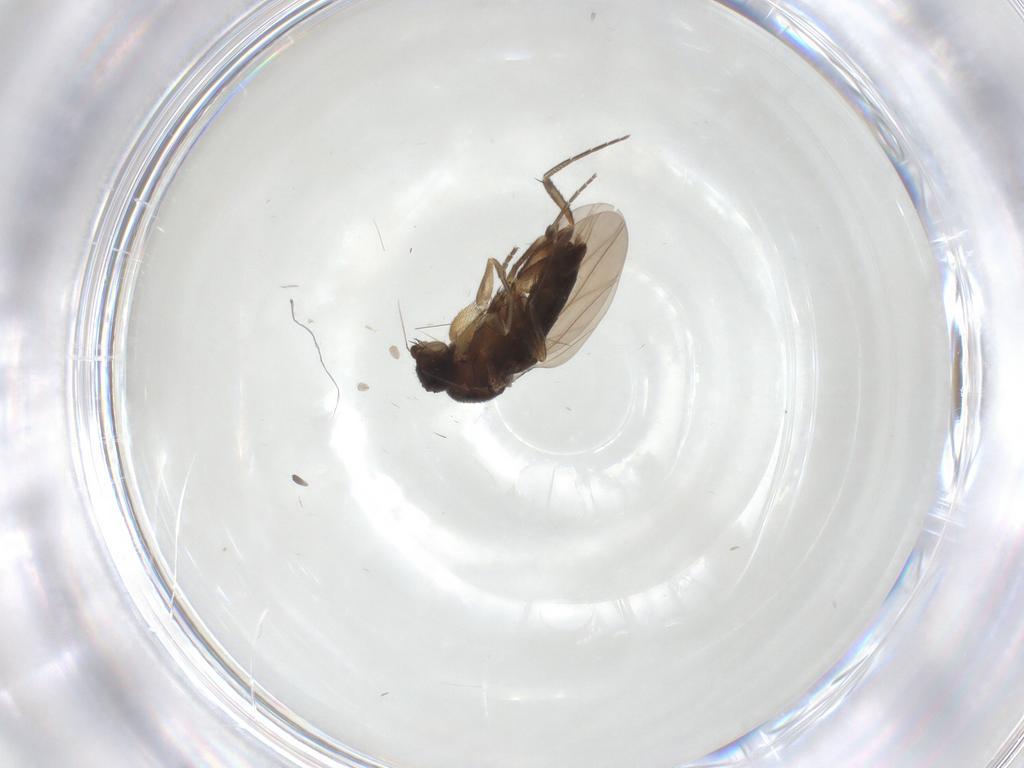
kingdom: Animalia
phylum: Arthropoda
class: Insecta
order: Diptera
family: Phoridae
